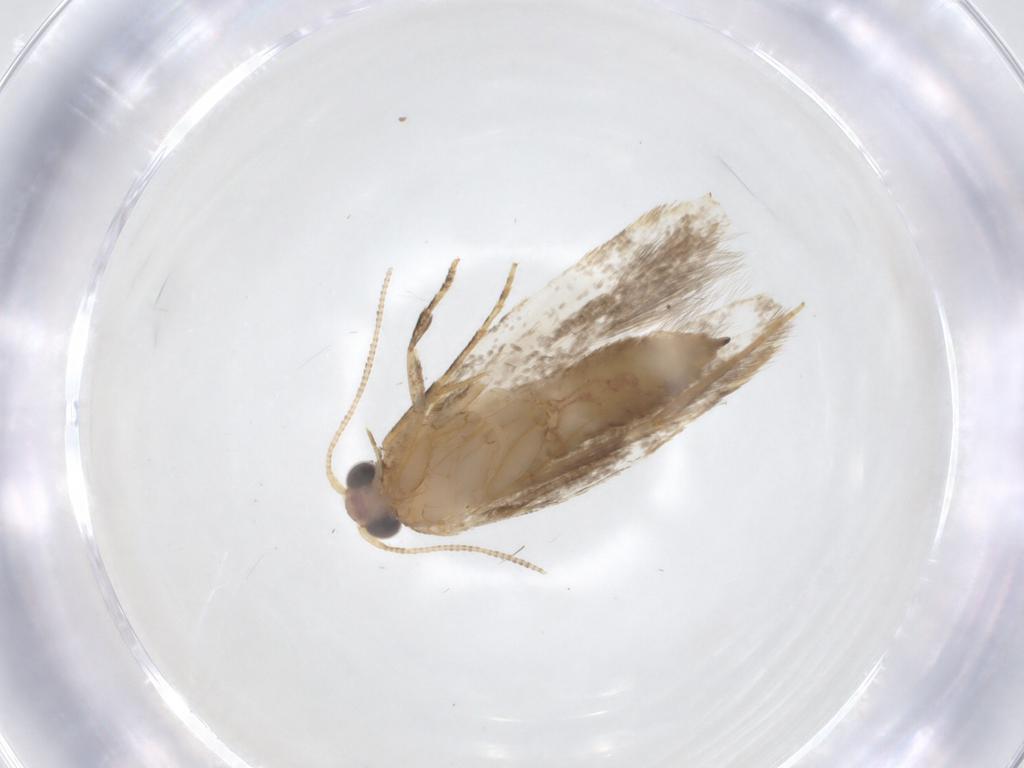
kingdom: Animalia
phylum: Arthropoda
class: Insecta
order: Lepidoptera
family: Tineidae
